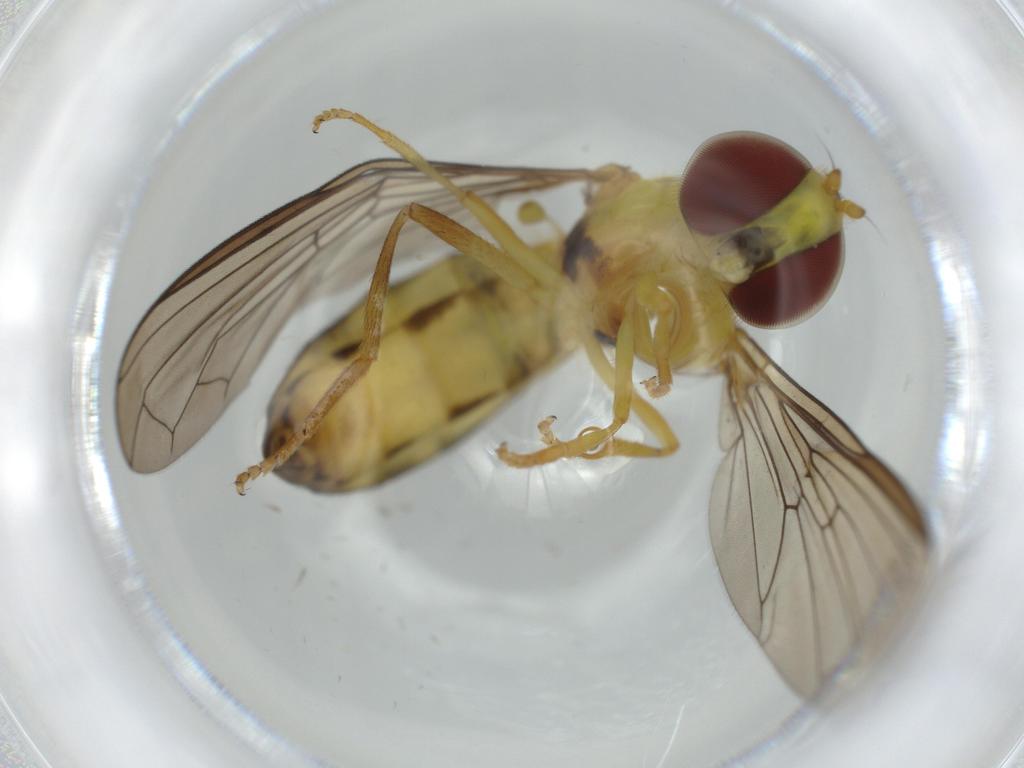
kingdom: Animalia
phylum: Arthropoda
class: Insecta
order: Diptera
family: Syrphidae
